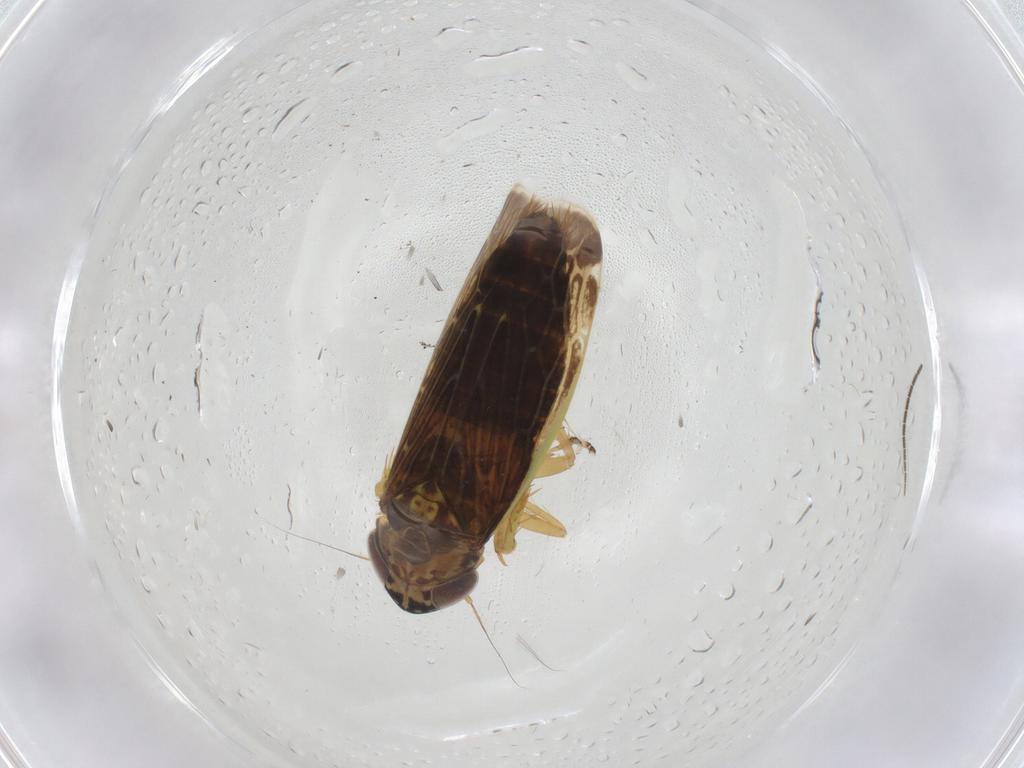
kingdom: Animalia
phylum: Arthropoda
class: Insecta
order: Hemiptera
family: Cicadellidae
